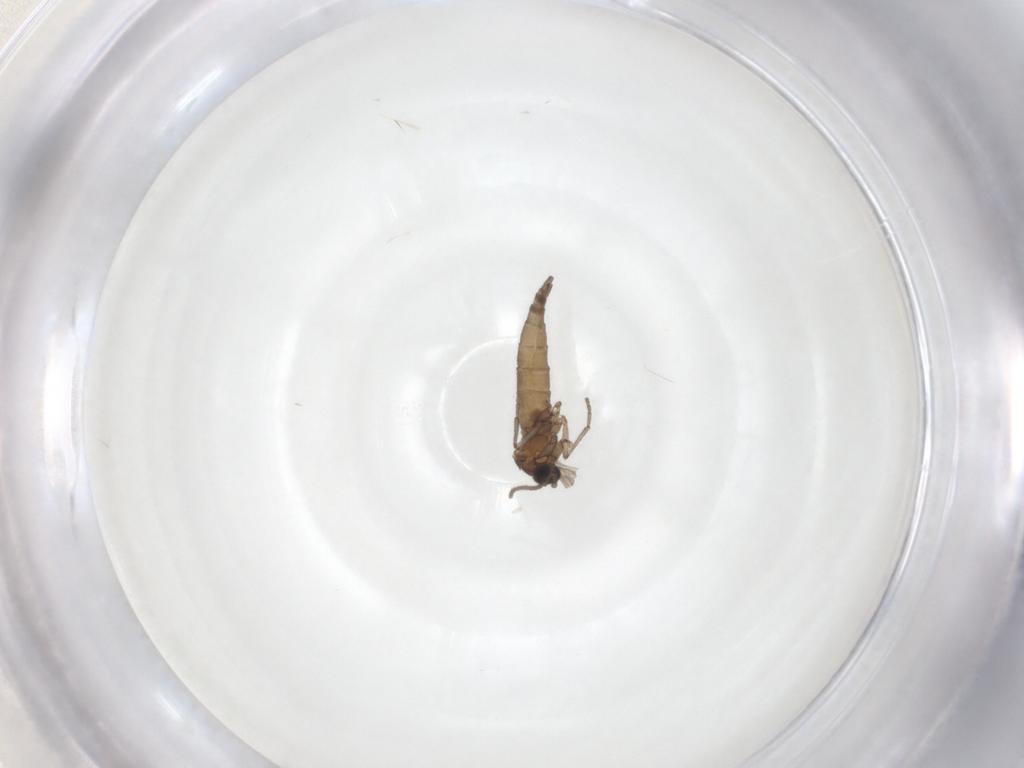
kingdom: Animalia
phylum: Arthropoda
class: Insecta
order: Diptera
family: Sciaridae
